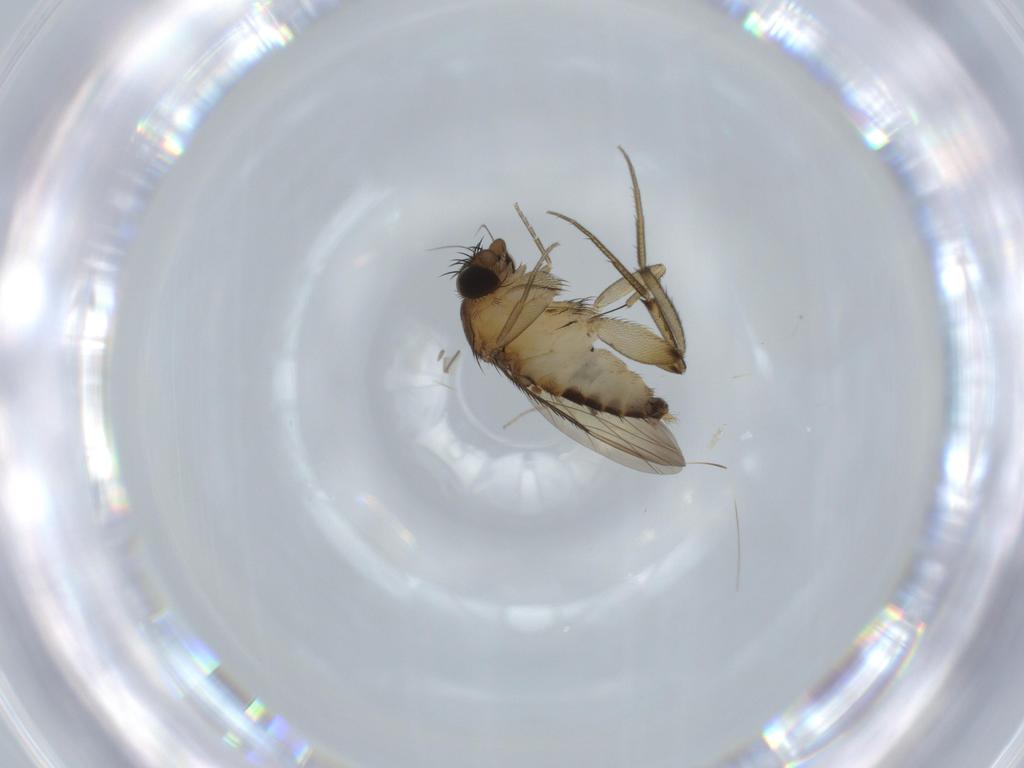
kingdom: Animalia
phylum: Arthropoda
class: Insecta
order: Diptera
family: Phoridae
